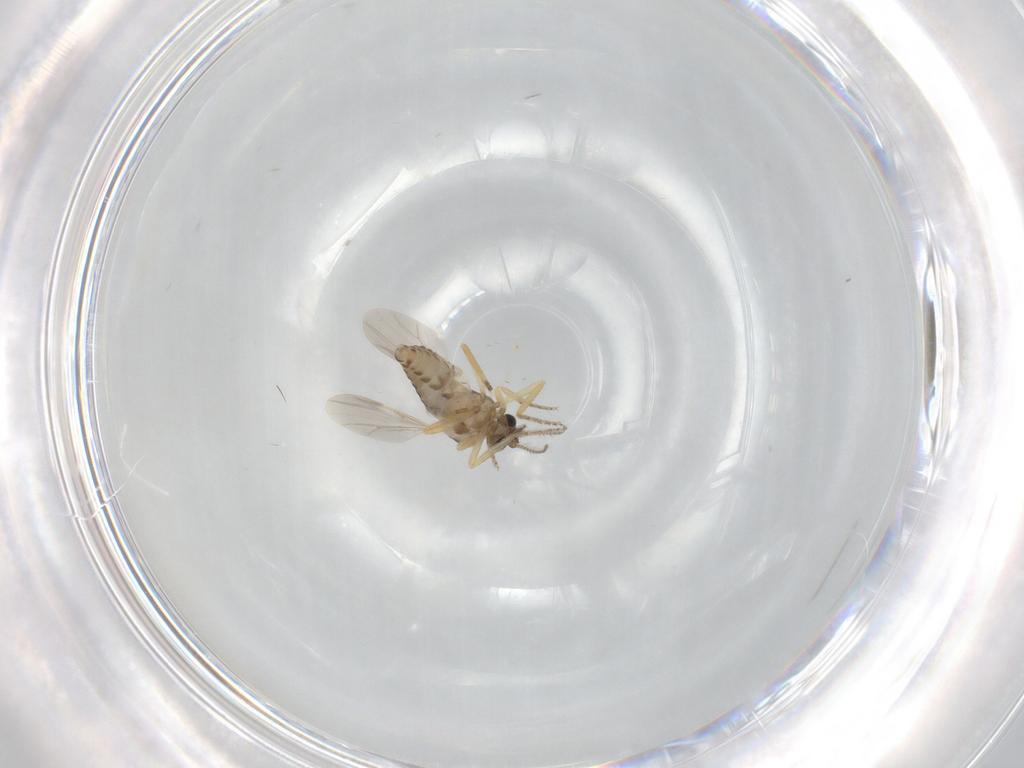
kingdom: Animalia
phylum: Arthropoda
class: Insecta
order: Diptera
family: Ceratopogonidae
